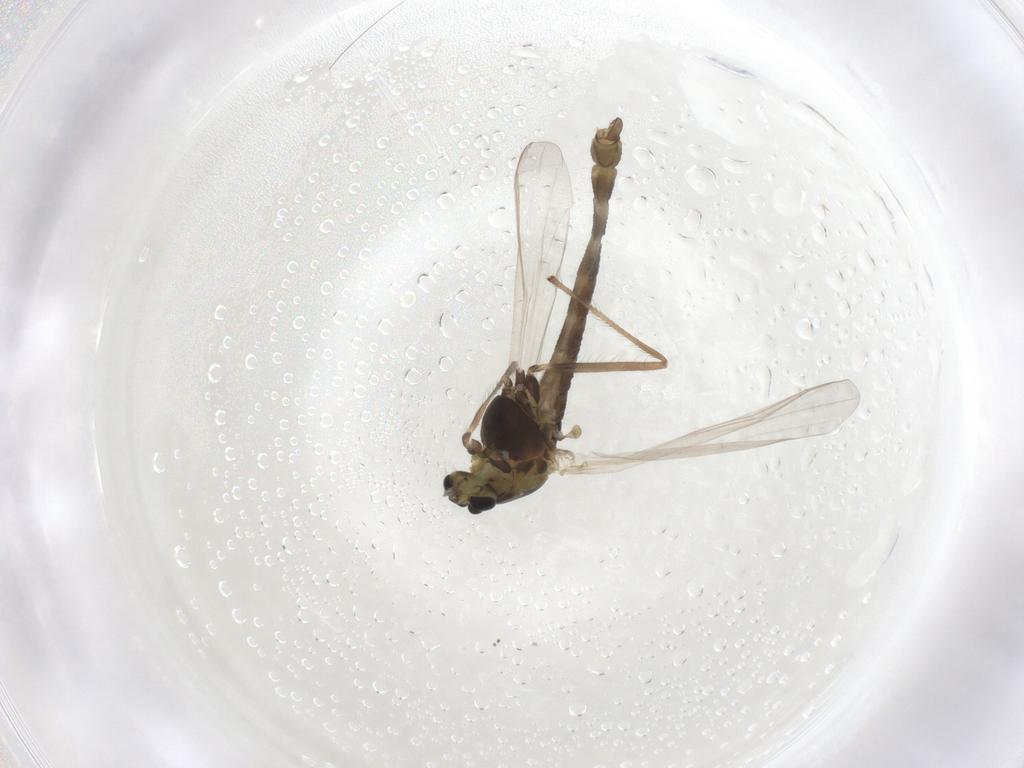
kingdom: Animalia
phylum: Arthropoda
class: Insecta
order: Diptera
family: Chironomidae
